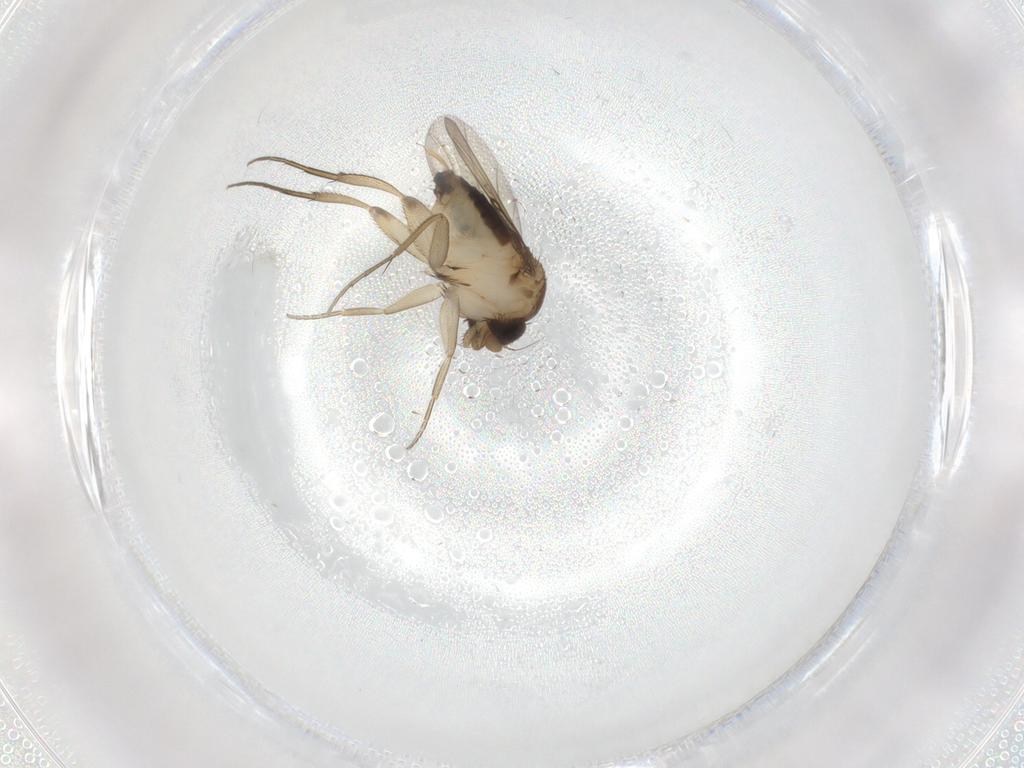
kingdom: Animalia
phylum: Arthropoda
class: Insecta
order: Diptera
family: Cecidomyiidae
